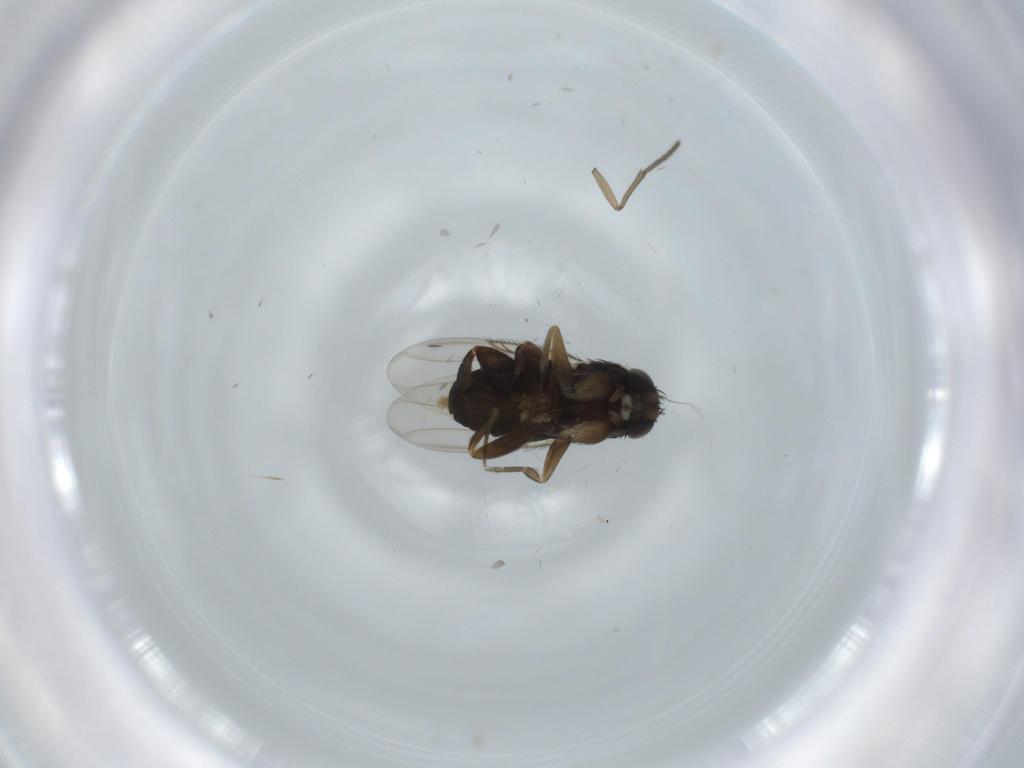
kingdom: Animalia
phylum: Arthropoda
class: Insecta
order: Diptera
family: Phoridae
